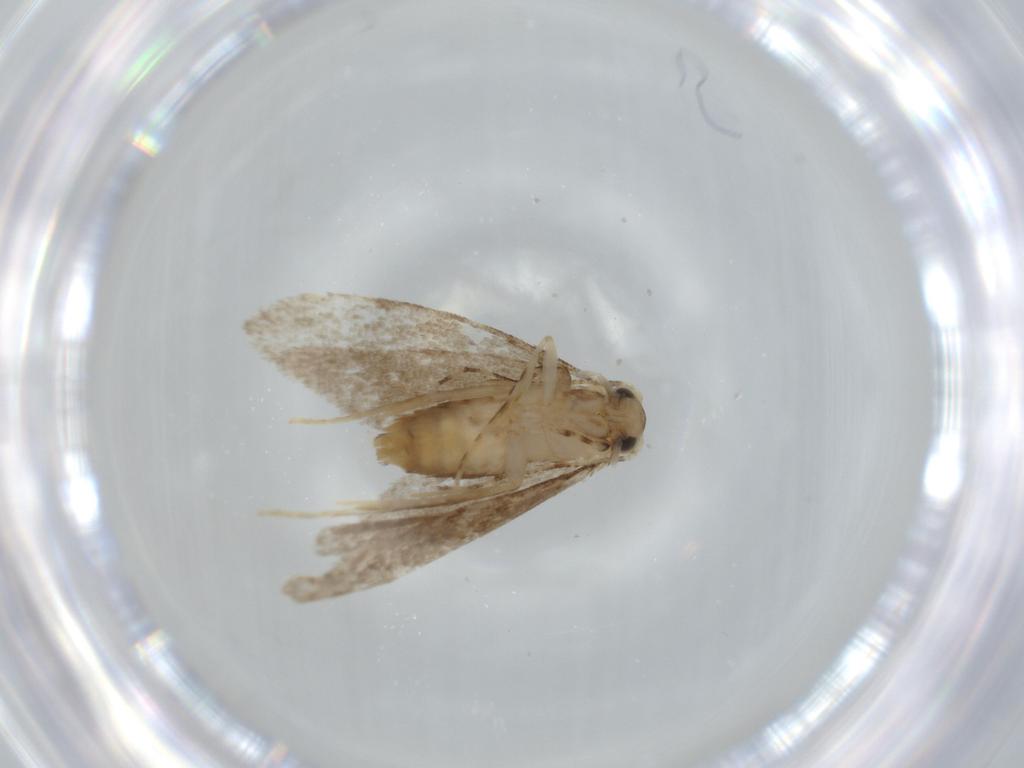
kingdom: Animalia
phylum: Arthropoda
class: Insecta
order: Lepidoptera
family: Tineidae
